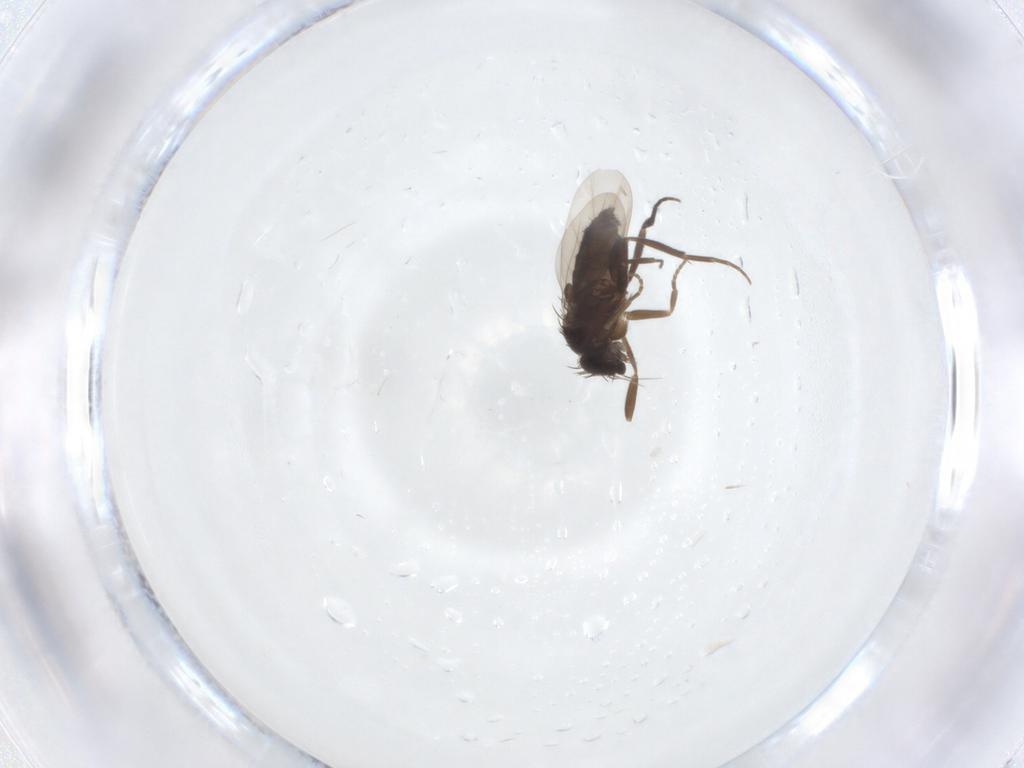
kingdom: Animalia
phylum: Arthropoda
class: Insecta
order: Diptera
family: Phoridae
